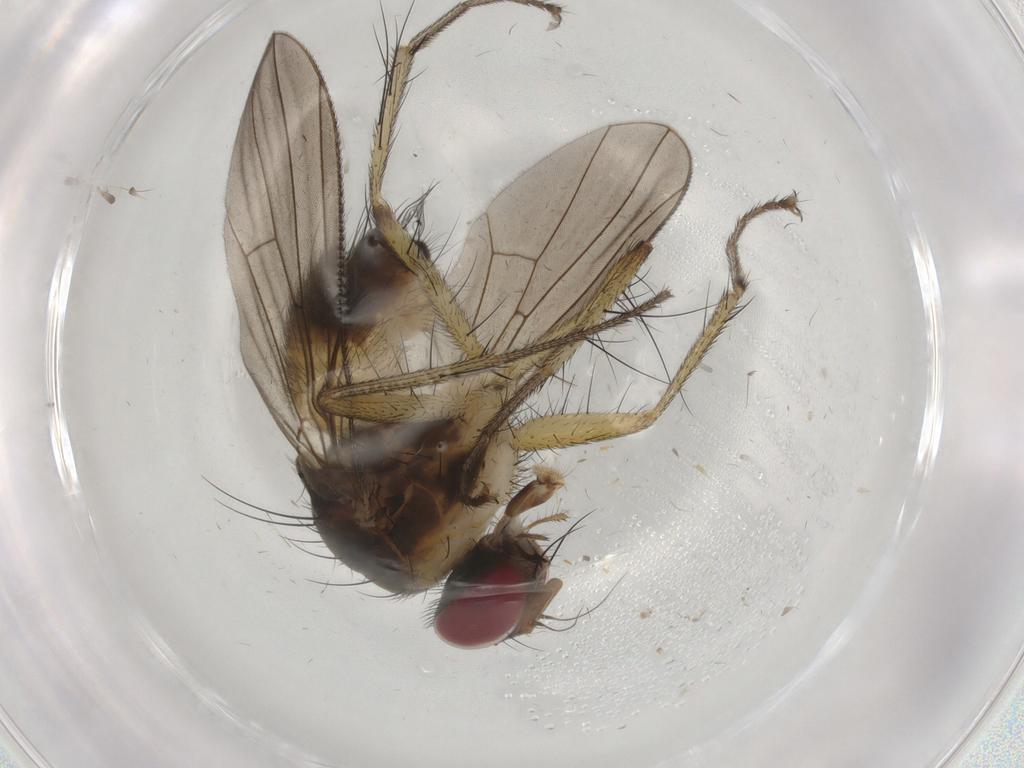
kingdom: Animalia
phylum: Arthropoda
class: Insecta
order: Diptera
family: Muscidae
